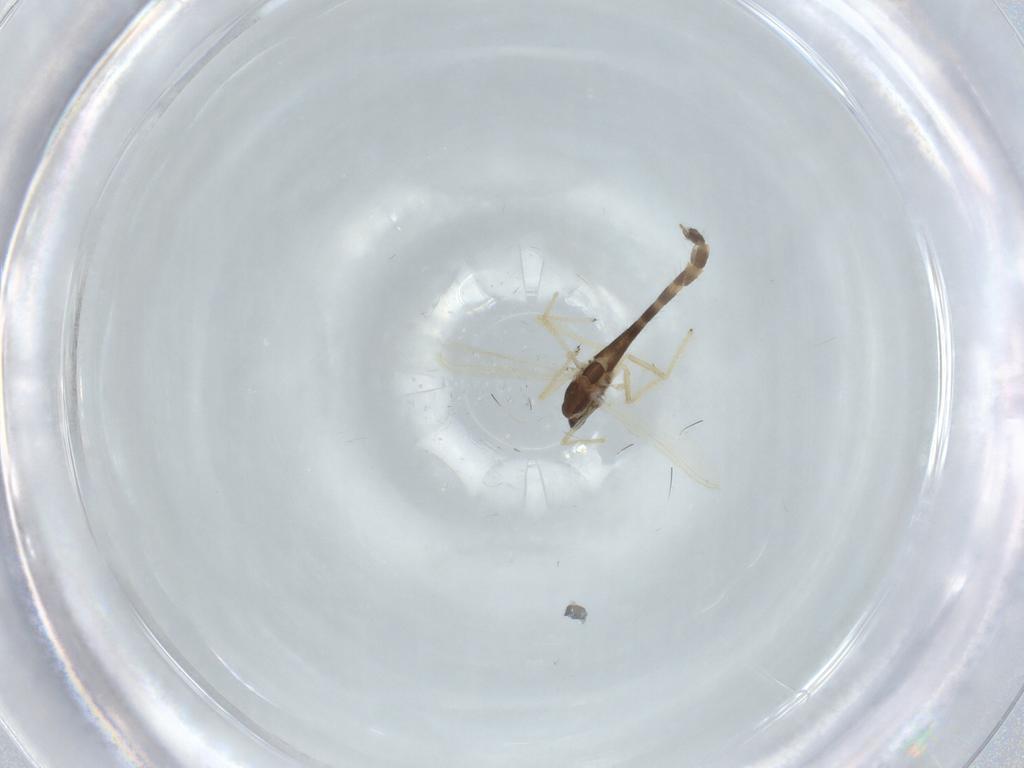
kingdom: Animalia
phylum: Arthropoda
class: Insecta
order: Diptera
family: Chironomidae
